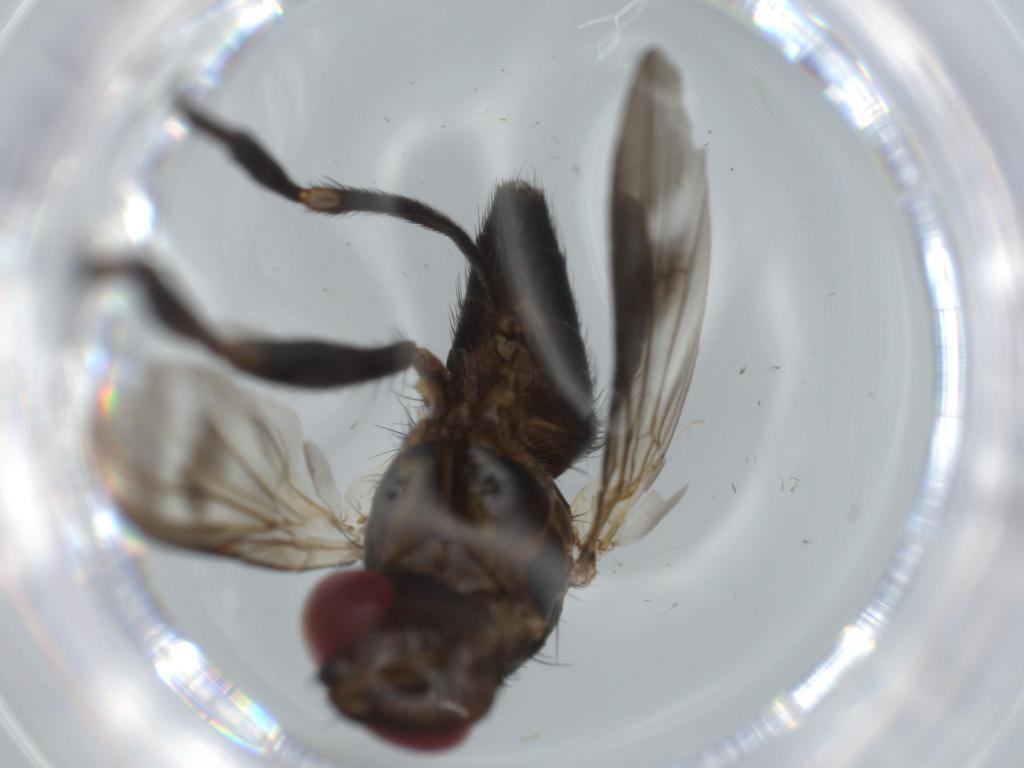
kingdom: Animalia
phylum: Arthropoda
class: Insecta
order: Diptera
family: Calliphoridae
